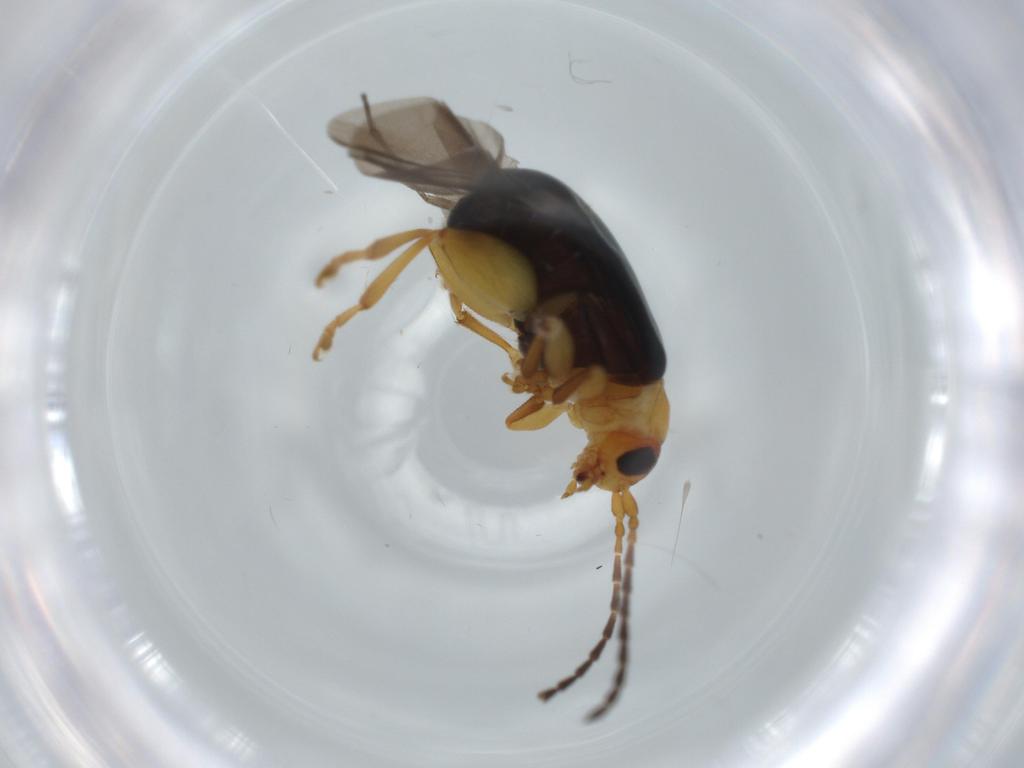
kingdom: Animalia
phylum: Arthropoda
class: Insecta
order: Coleoptera
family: Chrysomelidae
